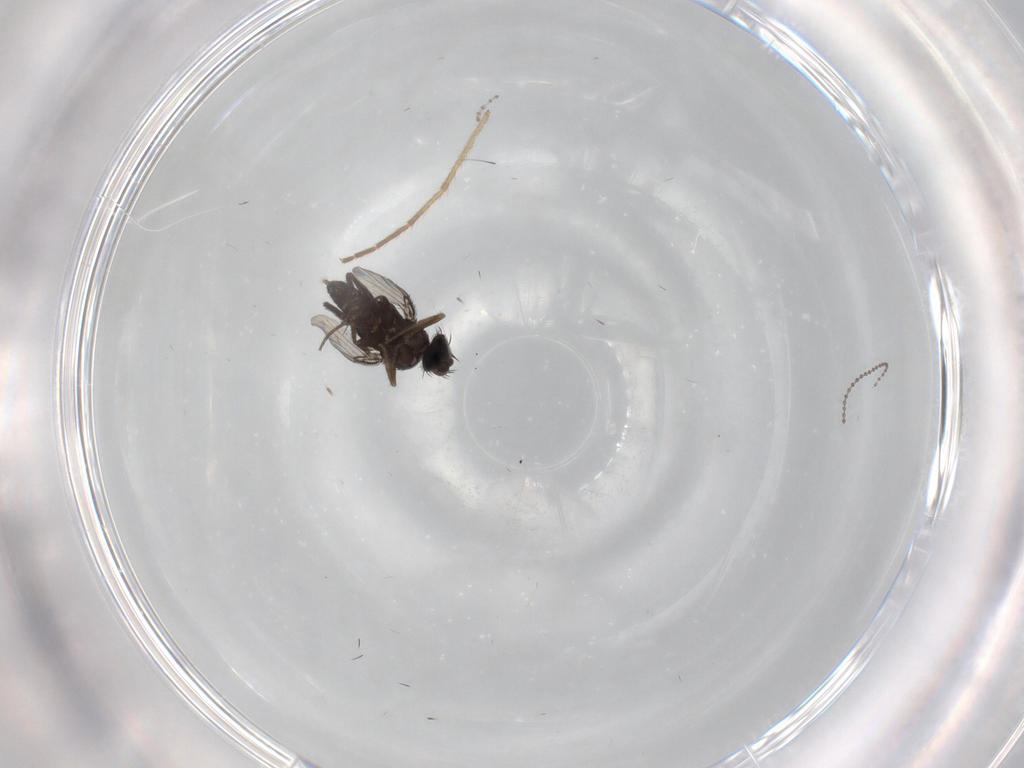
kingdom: Animalia
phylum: Arthropoda
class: Insecta
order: Diptera
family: Phoridae
